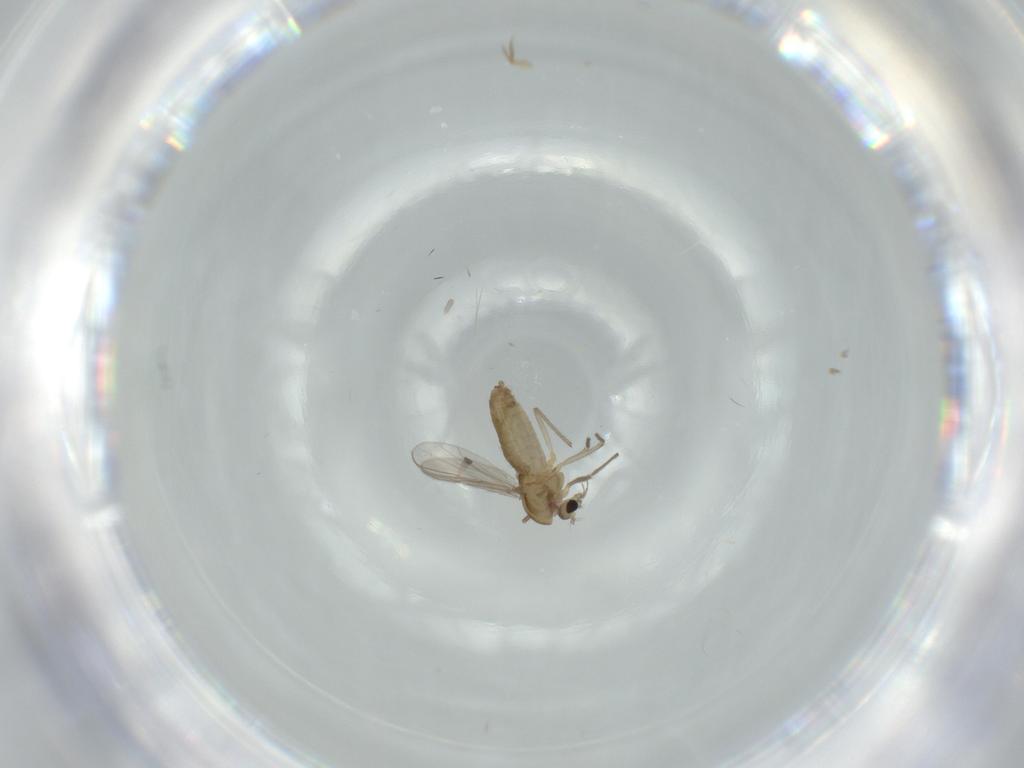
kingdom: Animalia
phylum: Arthropoda
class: Insecta
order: Diptera
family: Chironomidae
